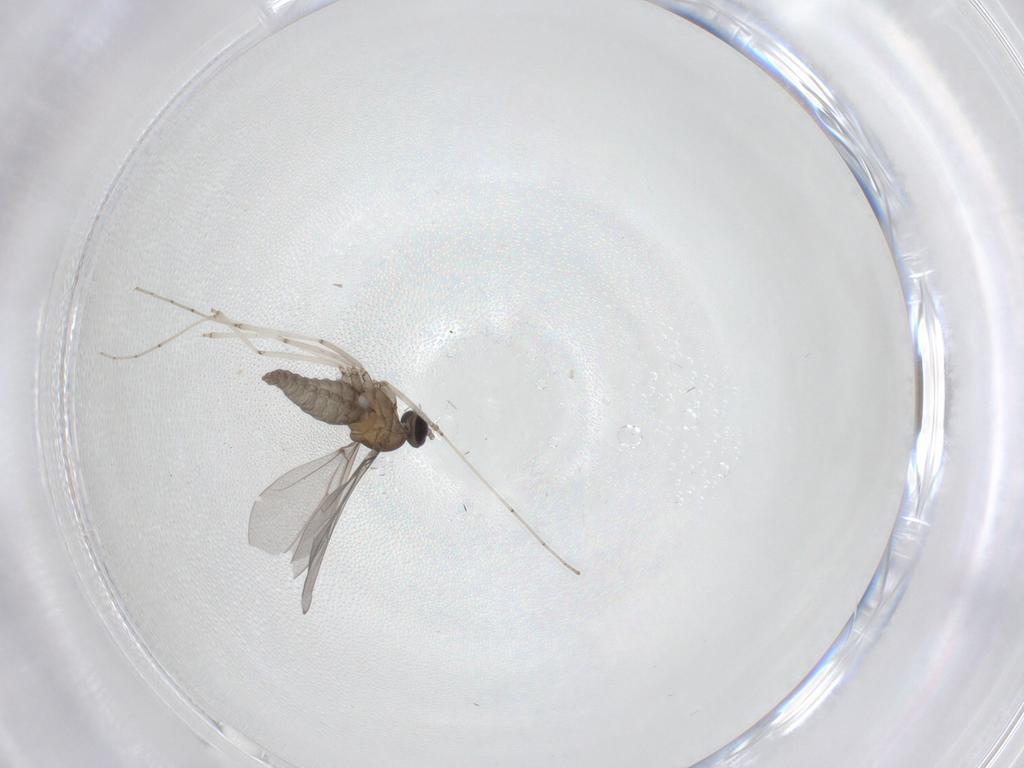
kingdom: Animalia
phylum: Arthropoda
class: Insecta
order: Diptera
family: Phoridae
